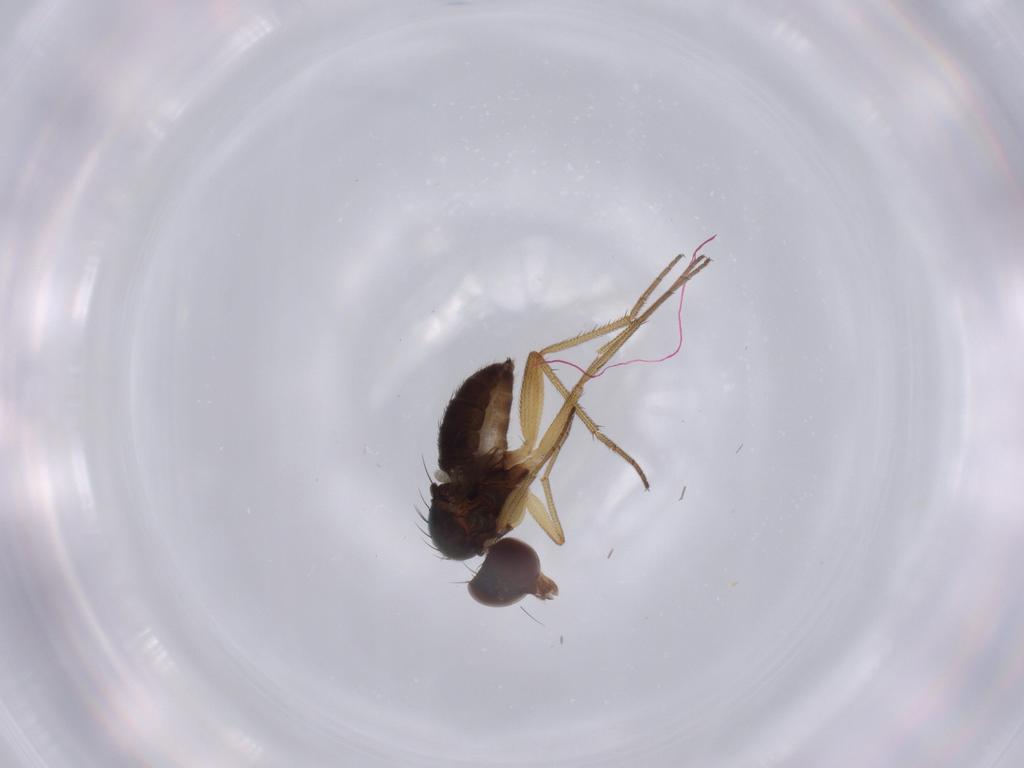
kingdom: Animalia
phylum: Arthropoda
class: Insecta
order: Diptera
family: Dolichopodidae
